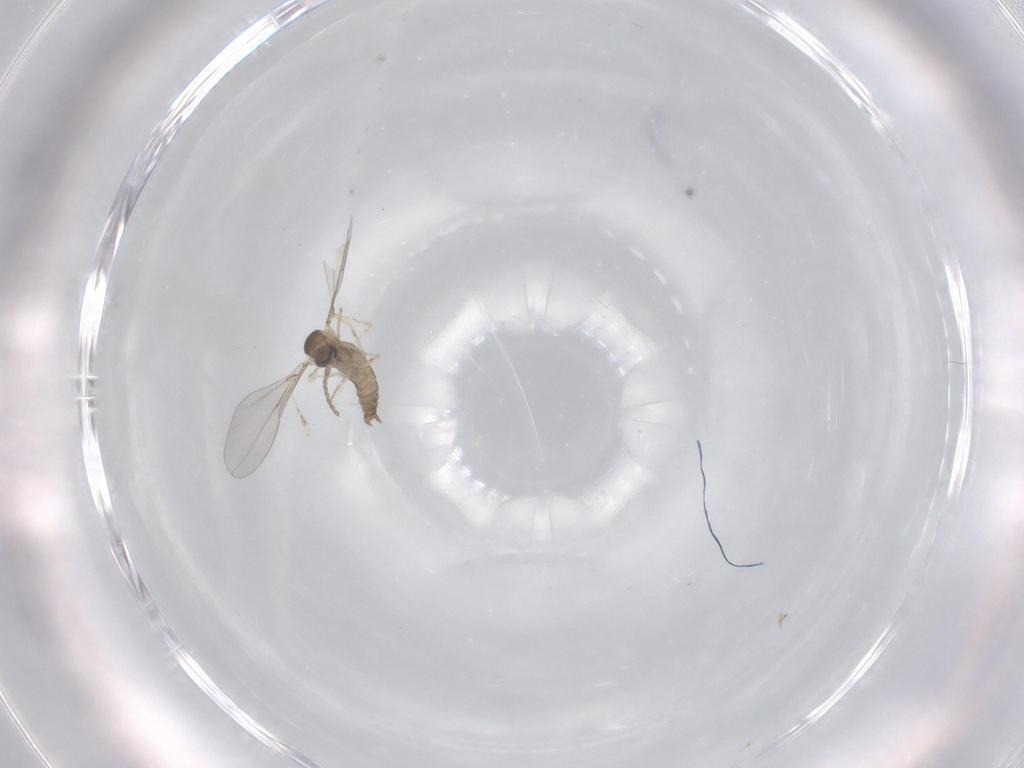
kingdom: Animalia
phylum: Arthropoda
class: Insecta
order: Diptera
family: Cecidomyiidae
